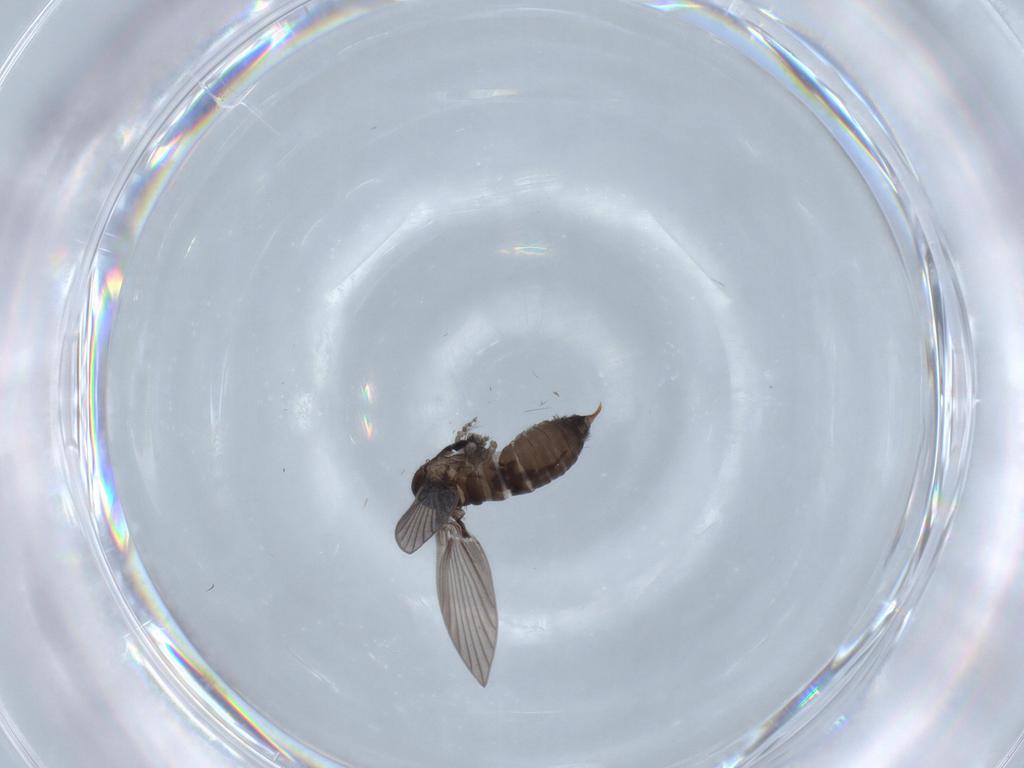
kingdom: Animalia
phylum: Arthropoda
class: Insecta
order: Diptera
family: Psychodidae
